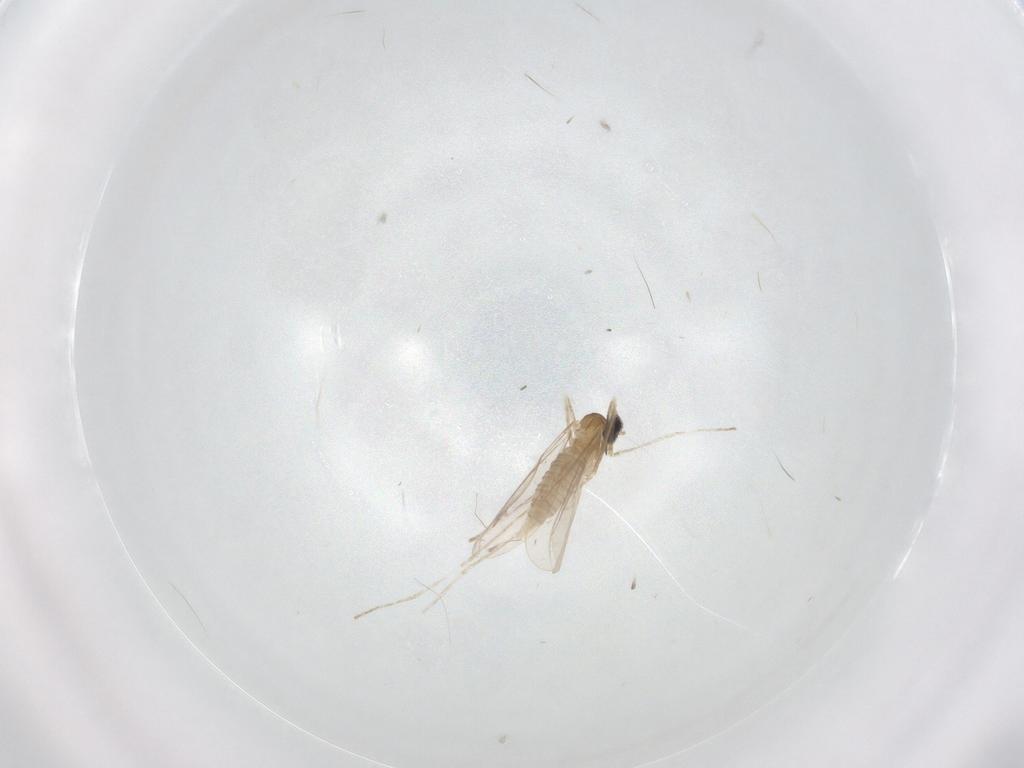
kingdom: Animalia
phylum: Arthropoda
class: Insecta
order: Diptera
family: Cecidomyiidae
